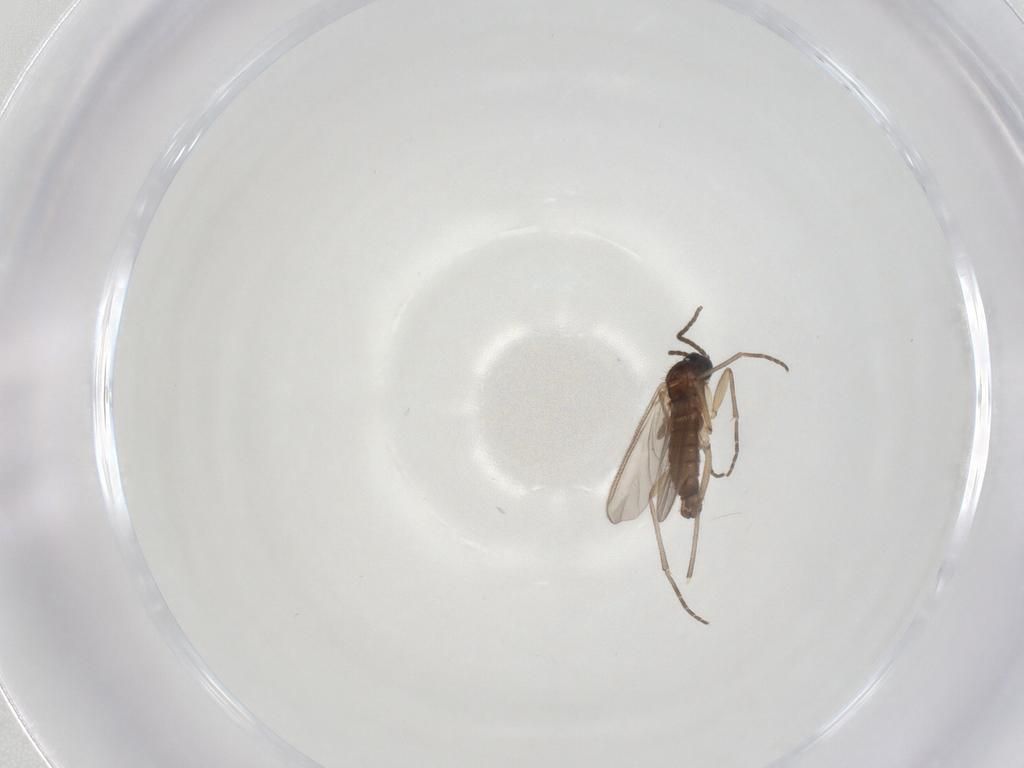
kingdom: Animalia
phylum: Arthropoda
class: Insecta
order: Diptera
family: Sciaridae
